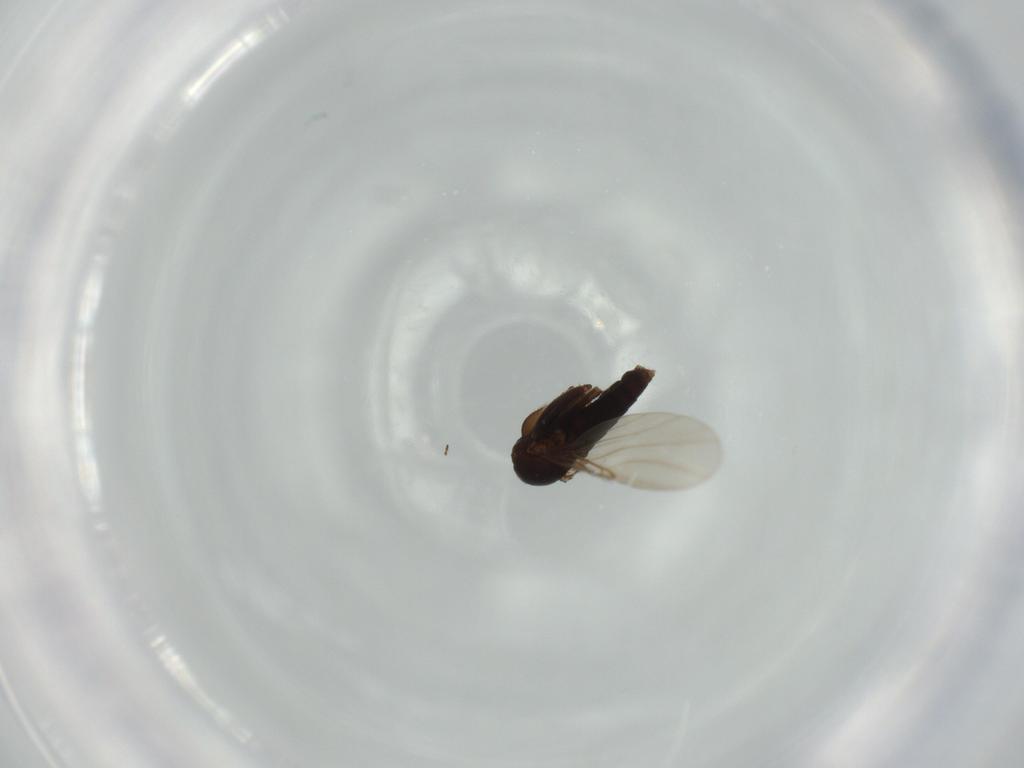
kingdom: Animalia
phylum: Arthropoda
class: Insecta
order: Diptera
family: Phoridae
